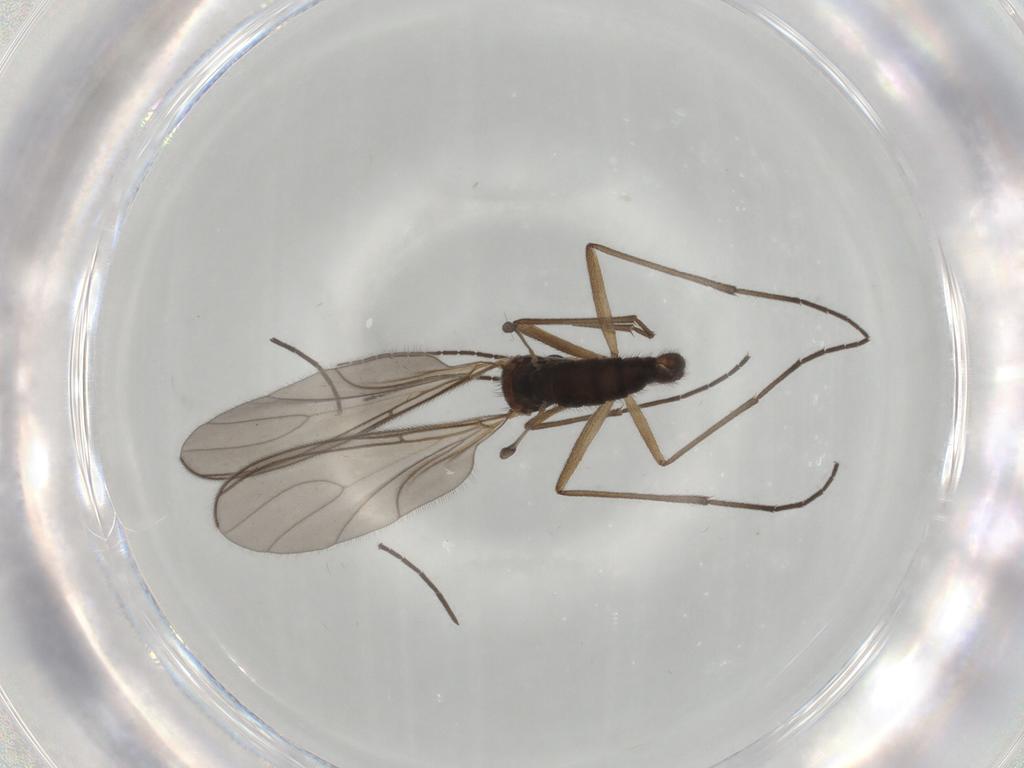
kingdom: Animalia
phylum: Arthropoda
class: Insecta
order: Diptera
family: Sciaridae
